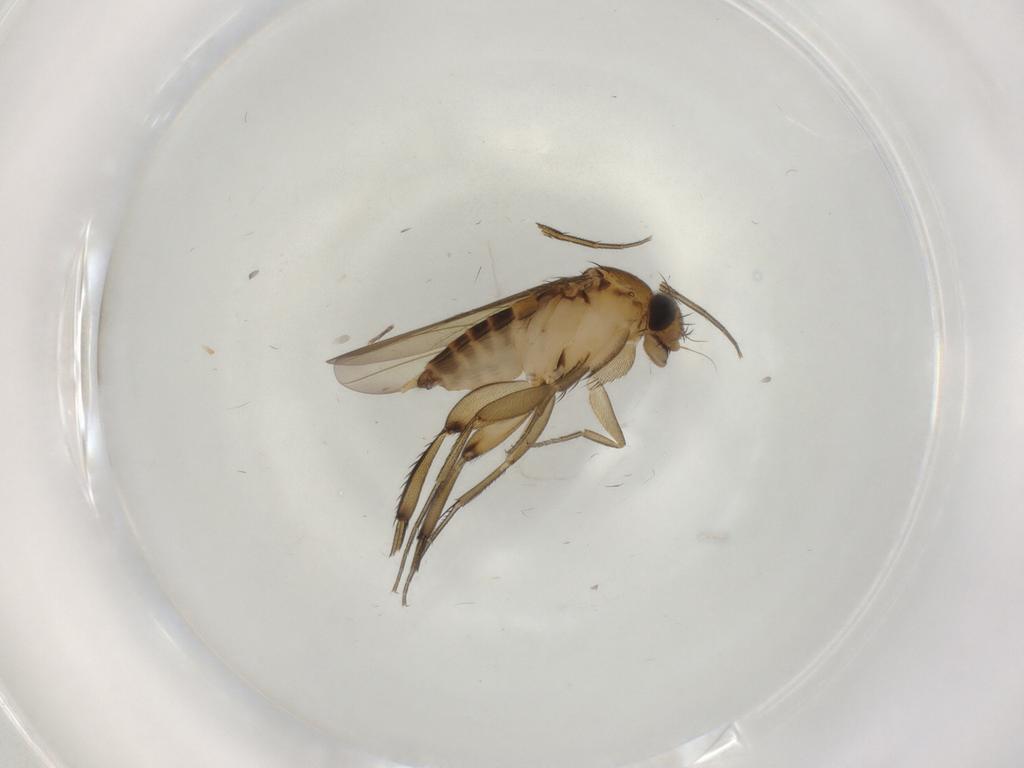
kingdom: Animalia
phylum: Arthropoda
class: Insecta
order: Diptera
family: Phoridae
